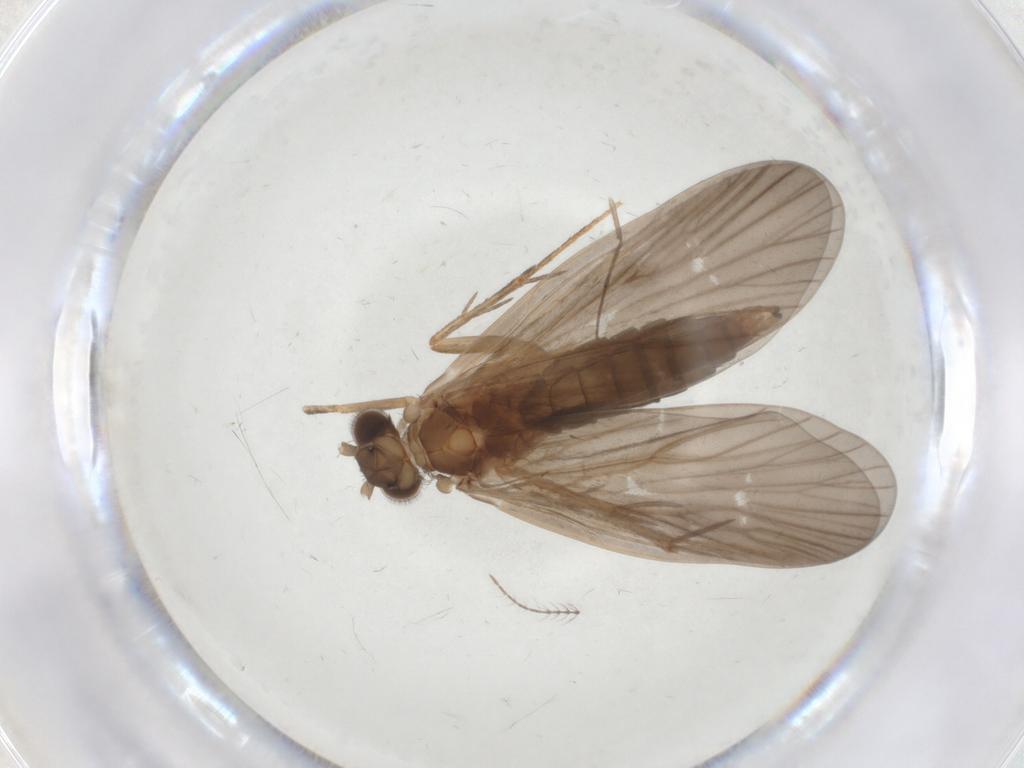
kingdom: Animalia
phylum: Arthropoda
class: Insecta
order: Trichoptera
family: Philopotamidae
